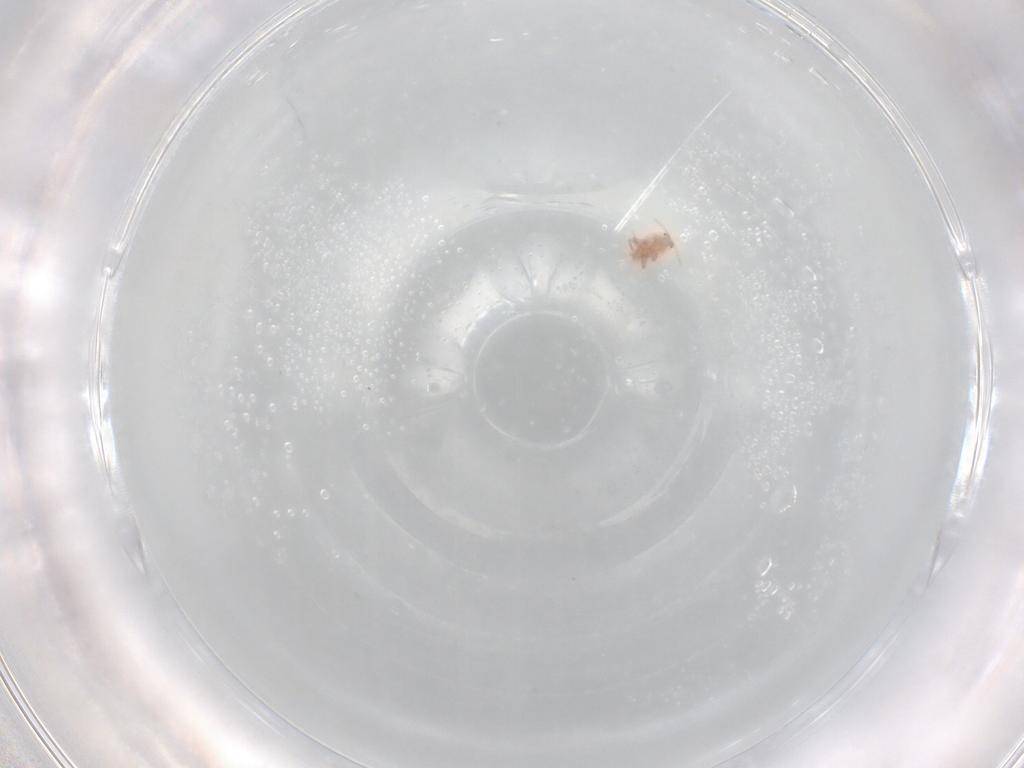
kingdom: Animalia
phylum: Arthropoda
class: Insecta
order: Hemiptera
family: Aleyrodidae
